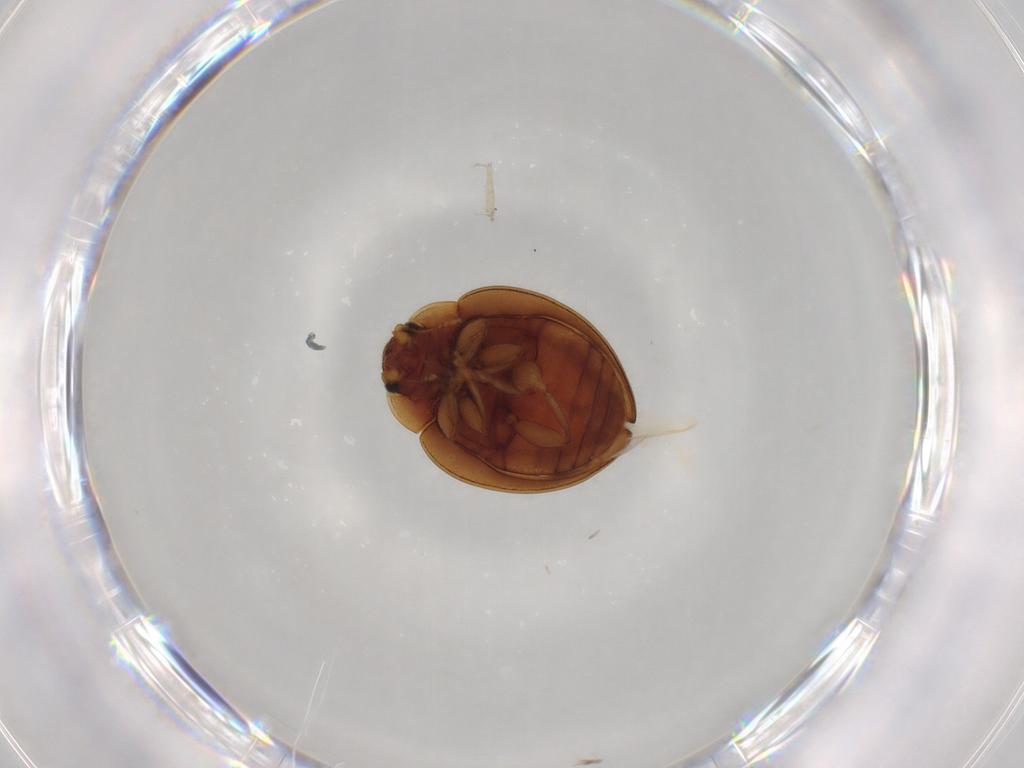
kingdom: Animalia
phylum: Arthropoda
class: Insecta
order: Coleoptera
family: Coccinellidae
